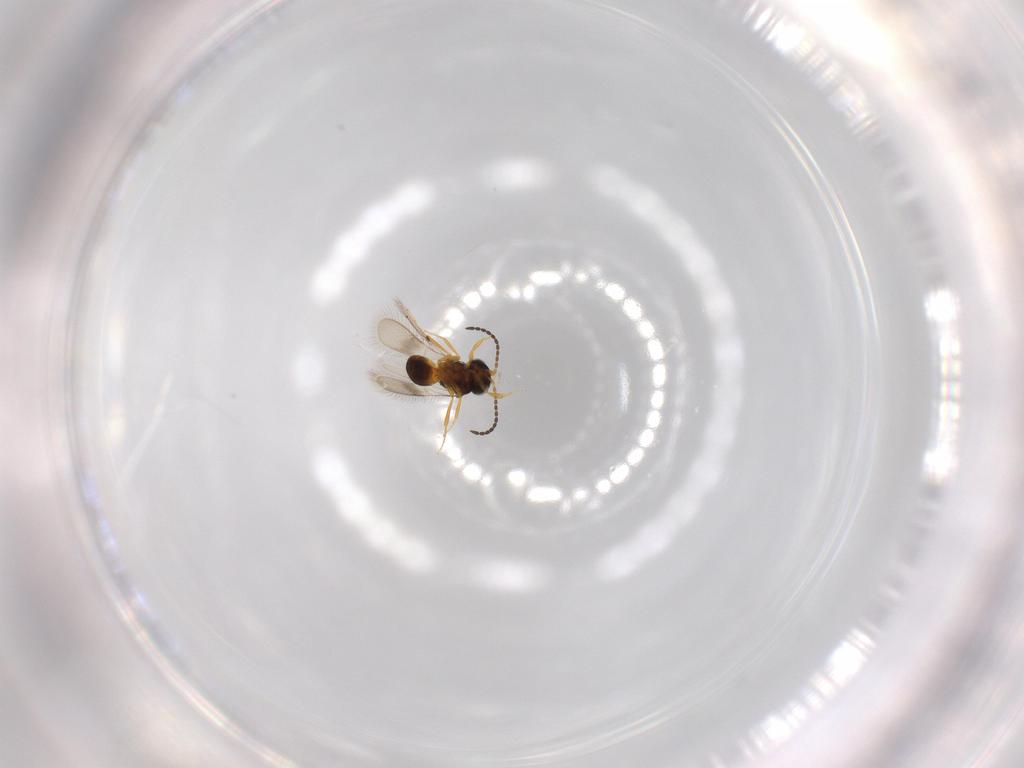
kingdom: Animalia
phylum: Arthropoda
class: Insecta
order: Hymenoptera
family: Scelionidae
